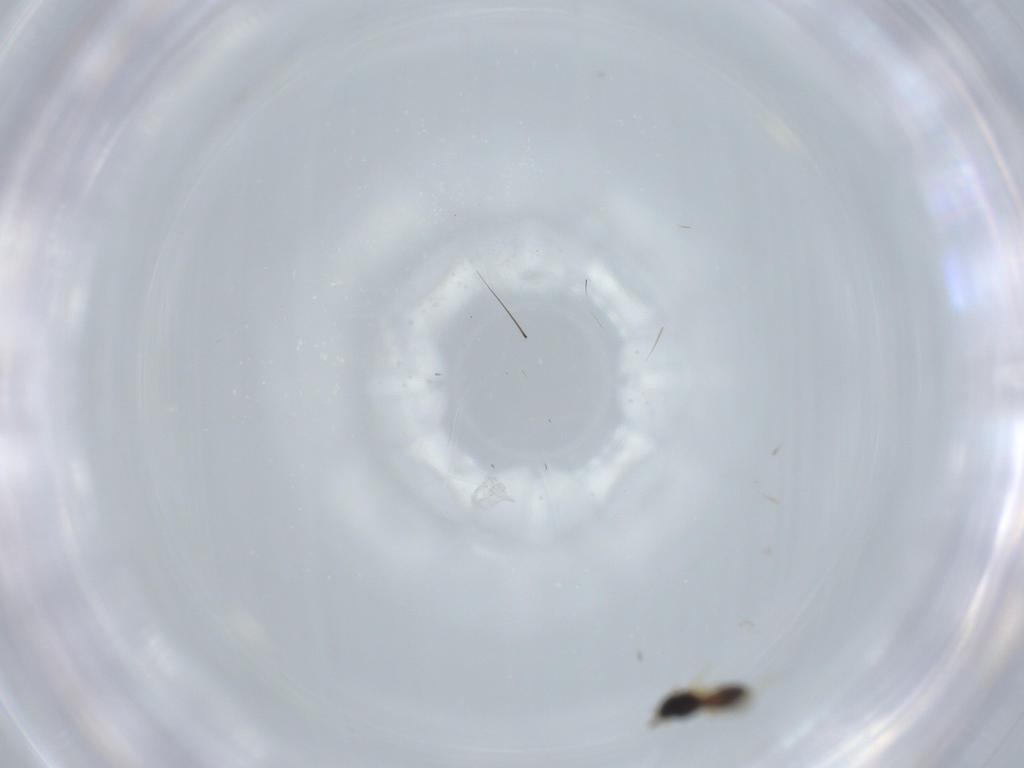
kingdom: Animalia
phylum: Arthropoda
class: Insecta
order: Hymenoptera
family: Platygastridae
